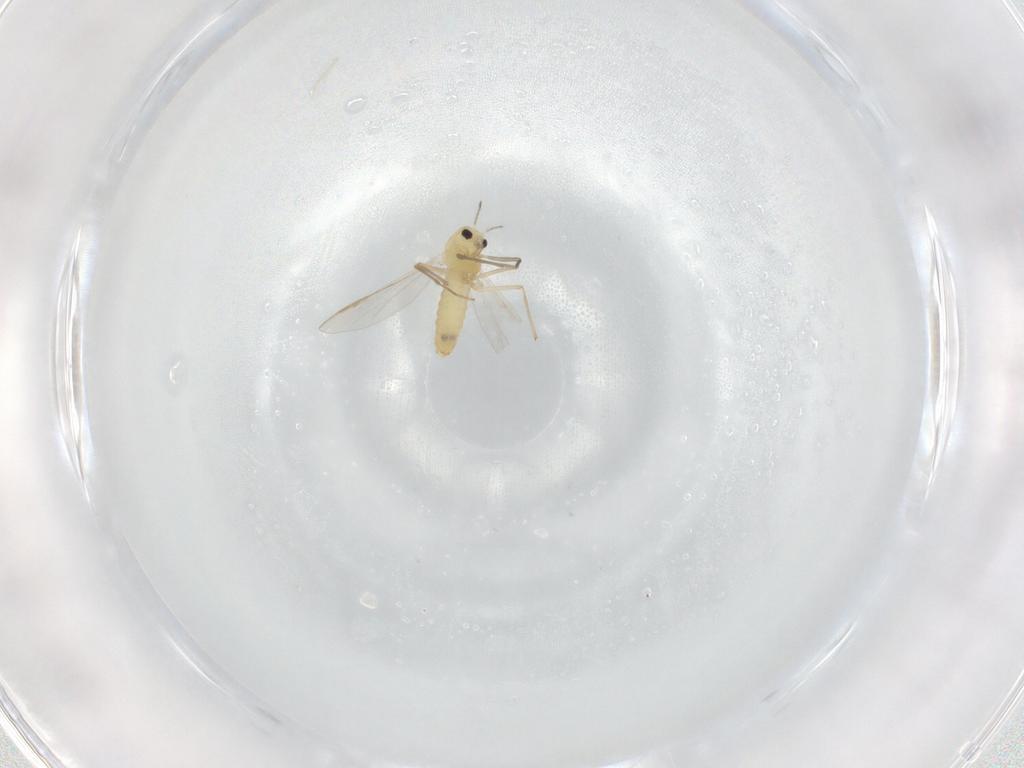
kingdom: Animalia
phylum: Arthropoda
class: Insecta
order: Diptera
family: Chironomidae
